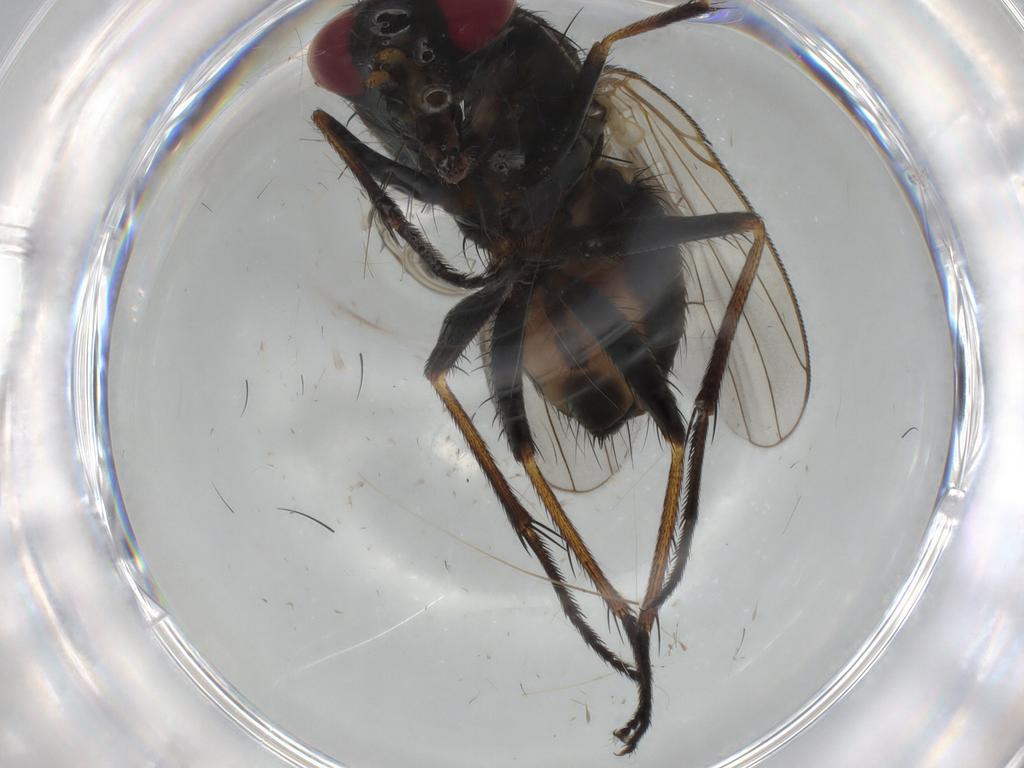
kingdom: Animalia
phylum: Arthropoda
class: Insecta
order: Diptera
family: Muscidae
